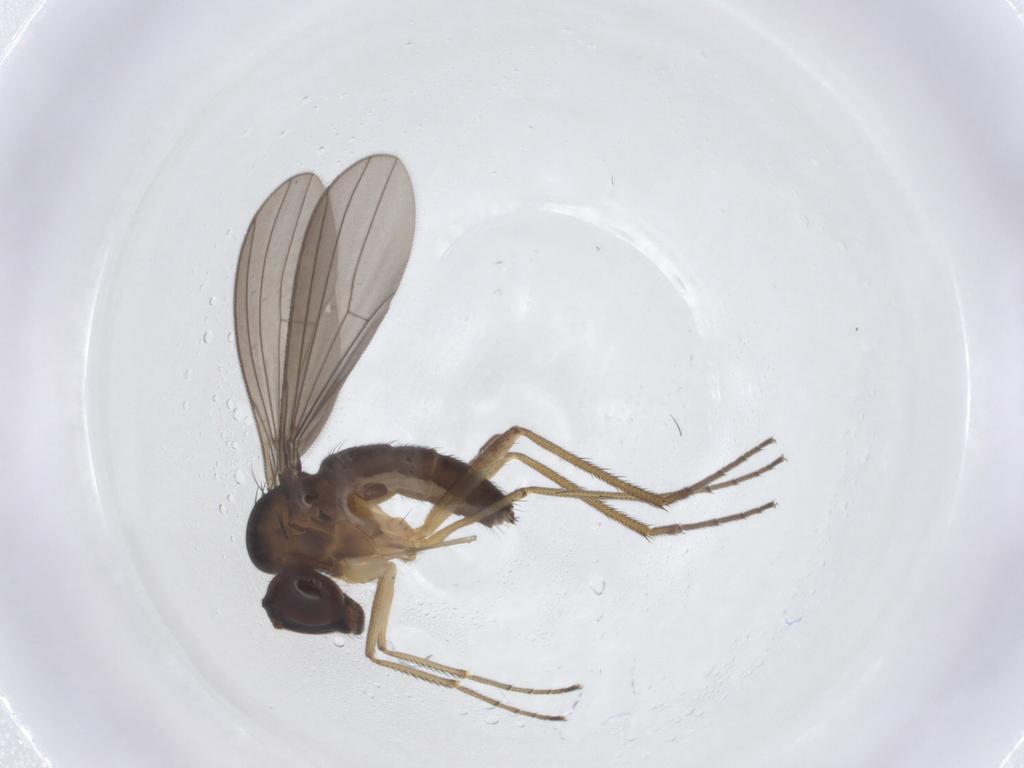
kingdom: Animalia
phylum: Arthropoda
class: Insecta
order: Diptera
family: Dolichopodidae
